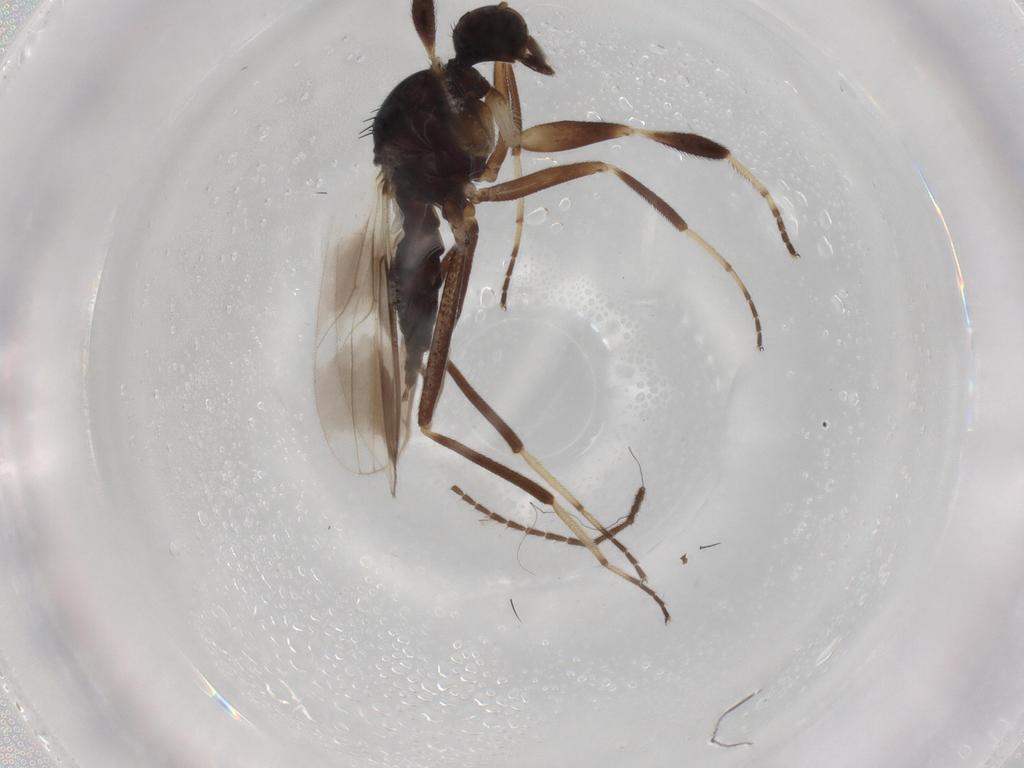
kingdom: Animalia
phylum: Arthropoda
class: Insecta
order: Diptera
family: Hybotidae
